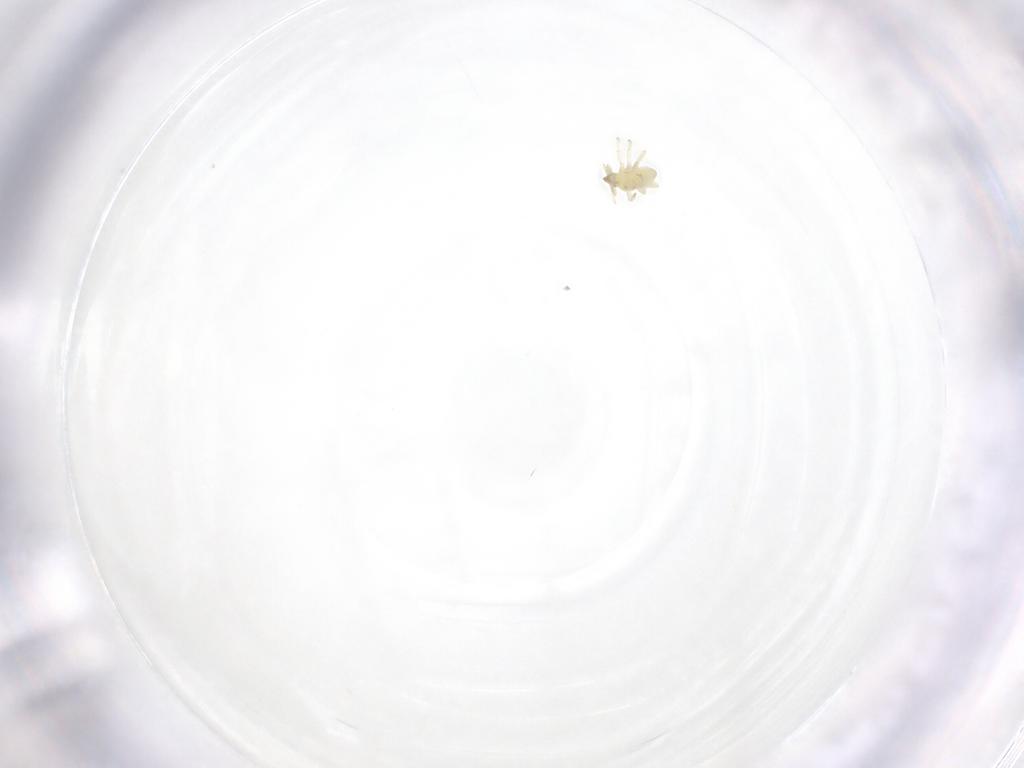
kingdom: Animalia
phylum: Arthropoda
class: Insecta
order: Neuroptera
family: Coniopterygidae
